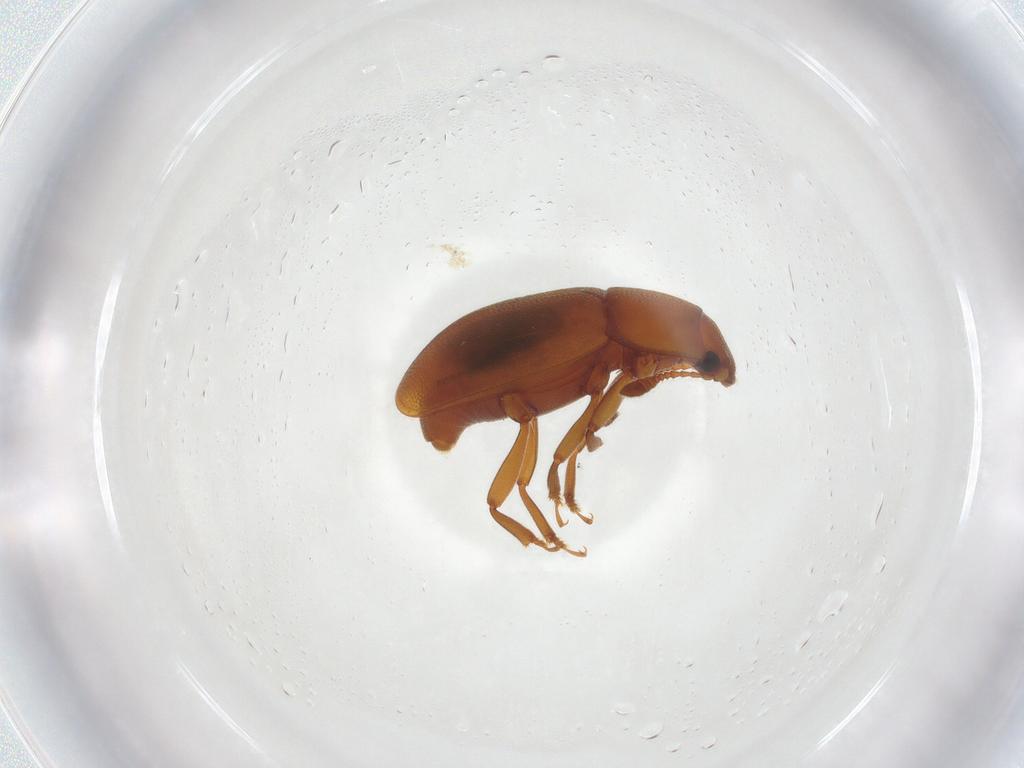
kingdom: Animalia
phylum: Arthropoda
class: Insecta
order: Coleoptera
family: Nitidulidae
